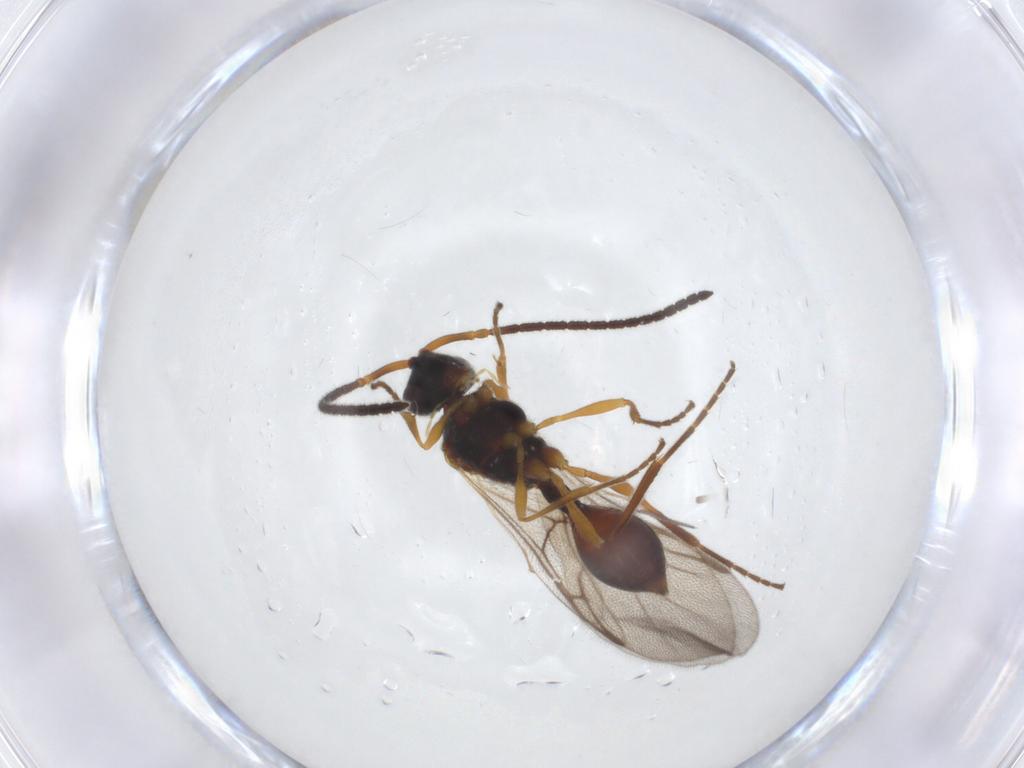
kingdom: Animalia
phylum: Arthropoda
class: Insecta
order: Hymenoptera
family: Diapriidae
